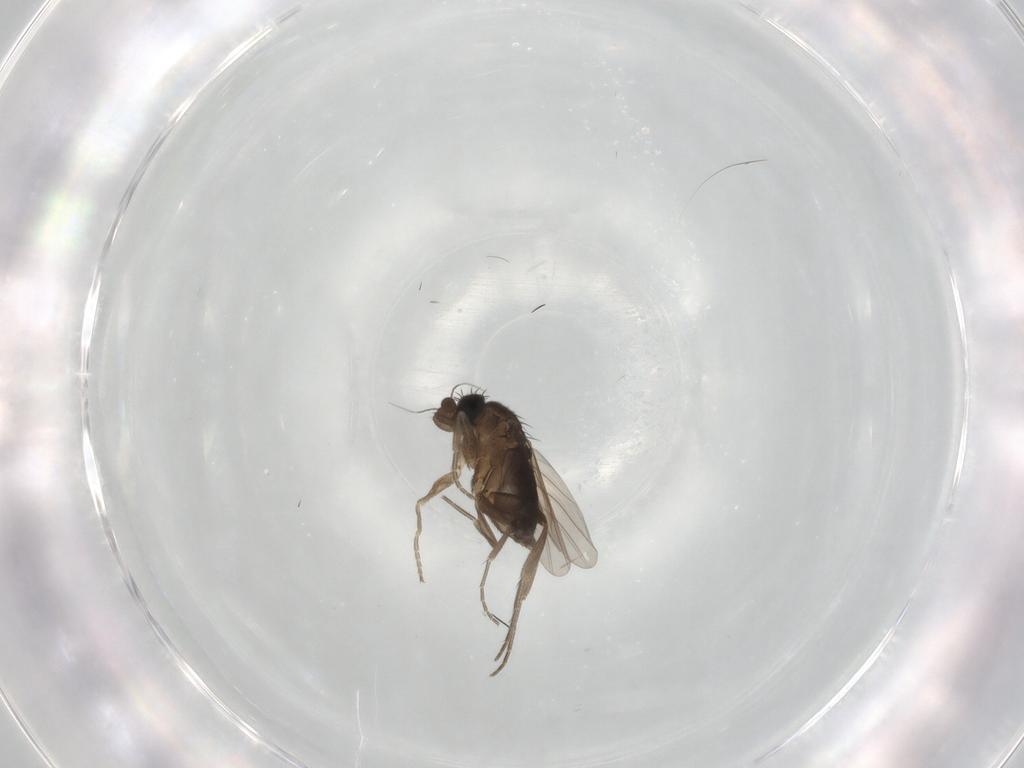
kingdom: Animalia
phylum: Arthropoda
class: Insecta
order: Diptera
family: Phoridae
